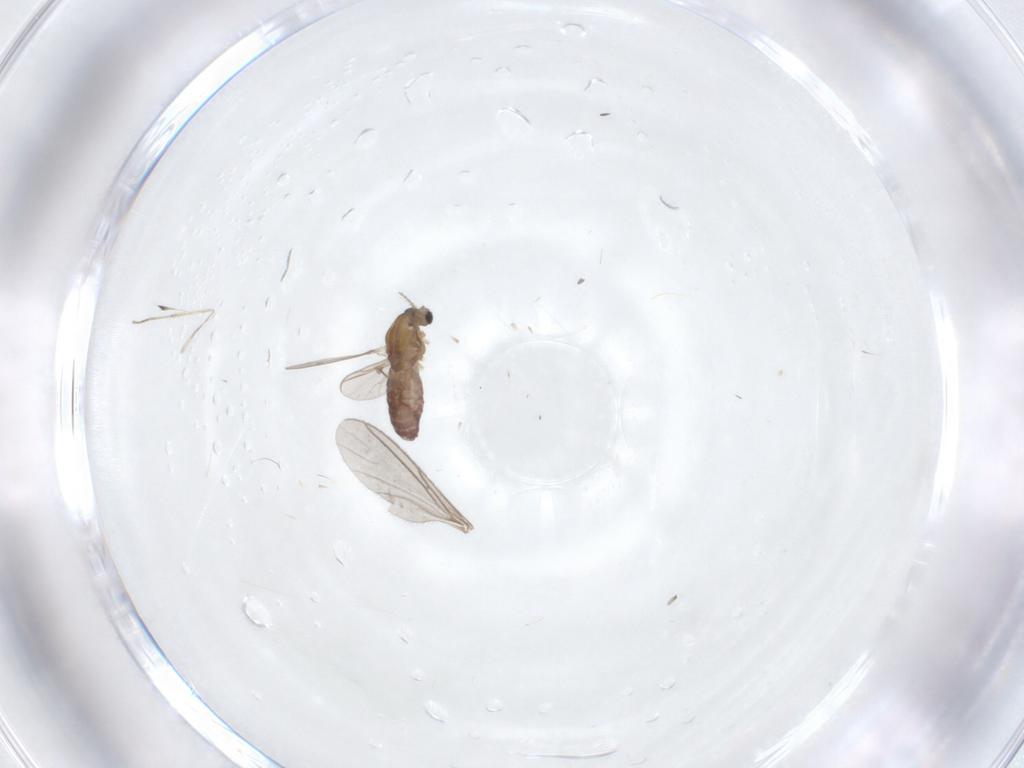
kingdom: Animalia
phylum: Arthropoda
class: Insecta
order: Diptera
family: Chironomidae
